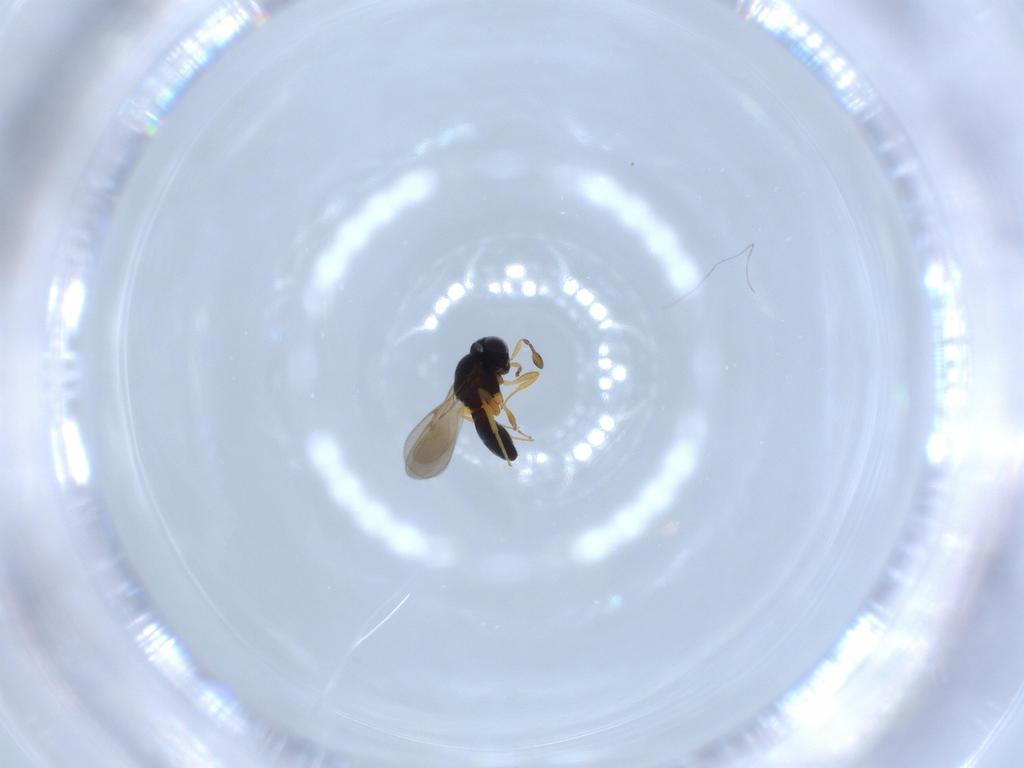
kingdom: Animalia
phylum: Arthropoda
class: Insecta
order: Hymenoptera
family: Scelionidae
